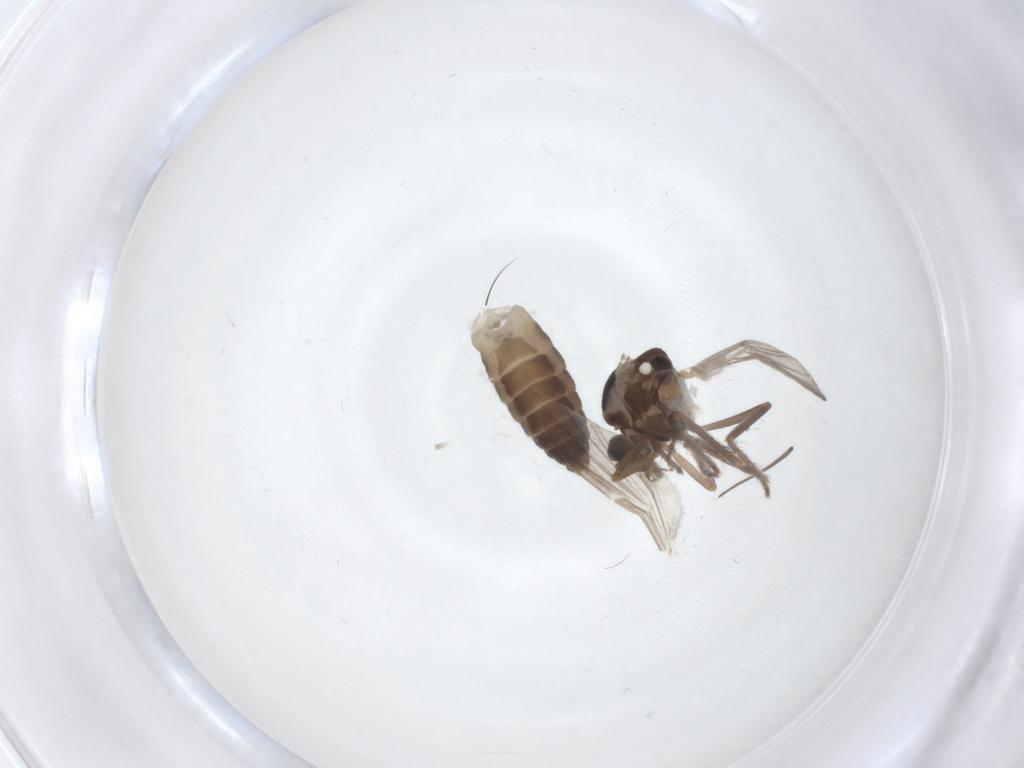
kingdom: Animalia
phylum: Arthropoda
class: Insecta
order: Diptera
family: Ceratopogonidae
